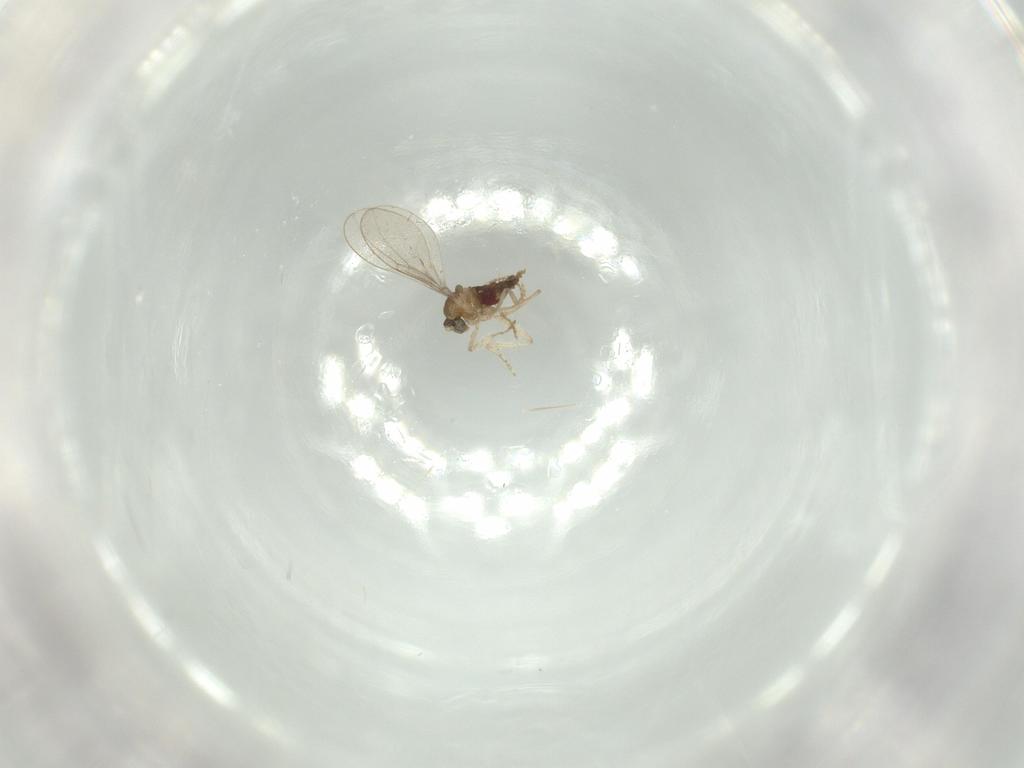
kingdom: Animalia
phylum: Arthropoda
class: Insecta
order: Diptera
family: Cecidomyiidae
